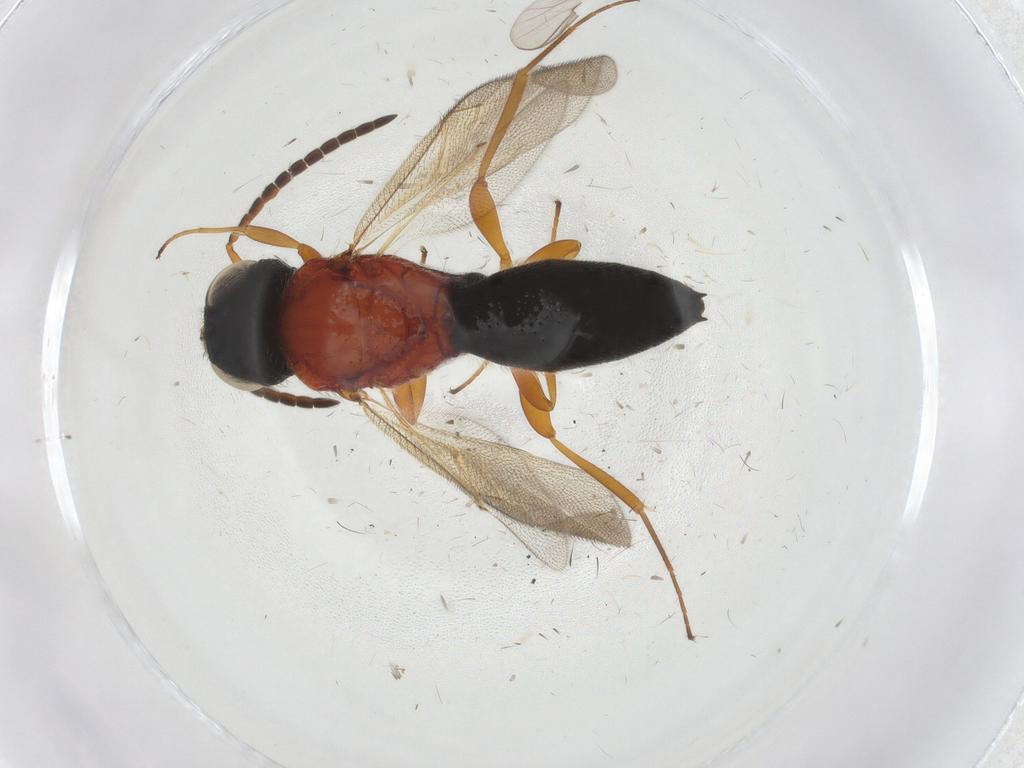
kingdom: Animalia
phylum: Arthropoda
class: Insecta
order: Hymenoptera
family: Scelionidae
